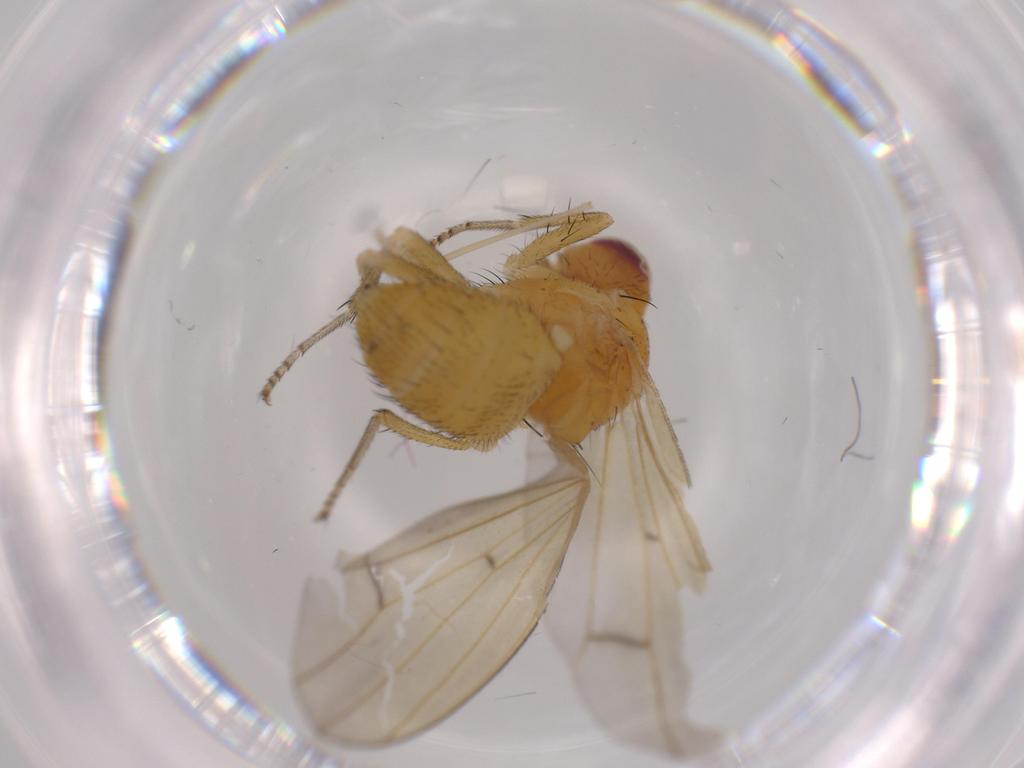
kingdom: Animalia
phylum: Arthropoda
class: Insecta
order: Diptera
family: Lauxaniidae
